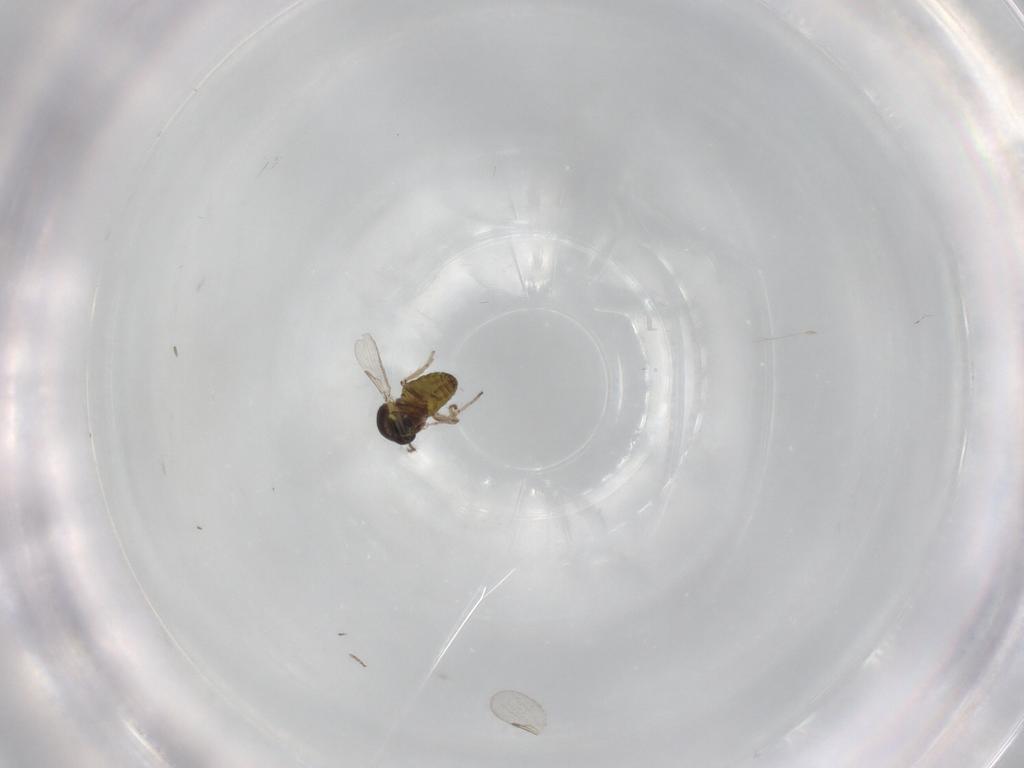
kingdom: Animalia
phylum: Arthropoda
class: Insecta
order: Diptera
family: Ceratopogonidae
